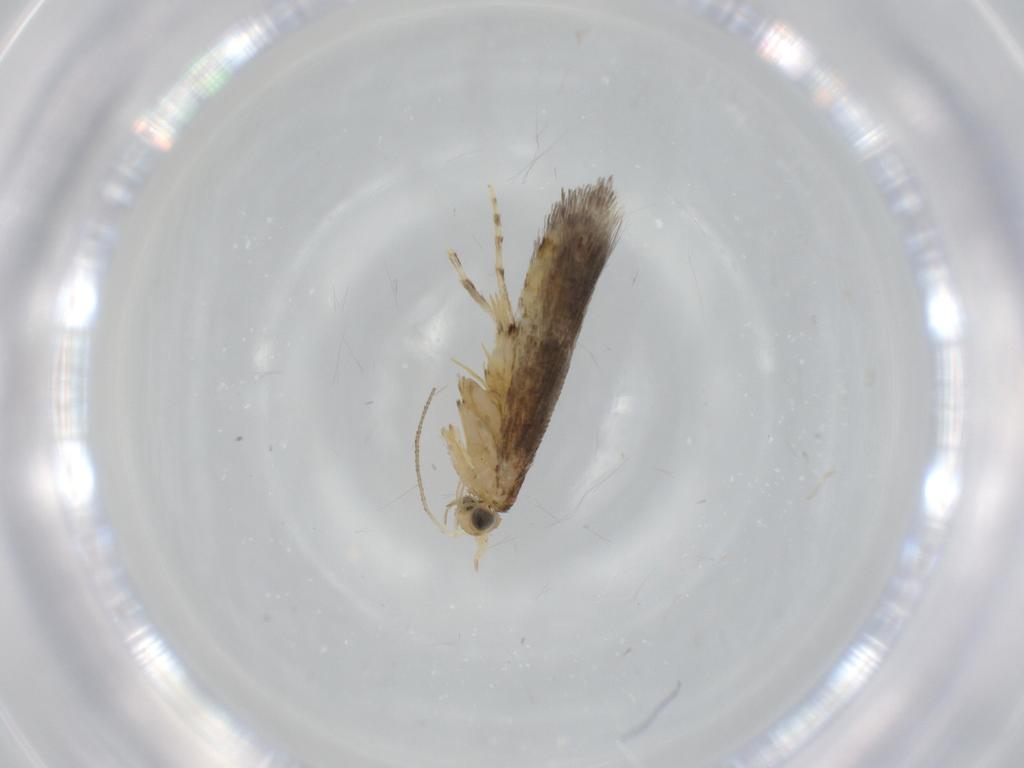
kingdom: Animalia
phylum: Arthropoda
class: Insecta
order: Lepidoptera
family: Argyresthiidae
